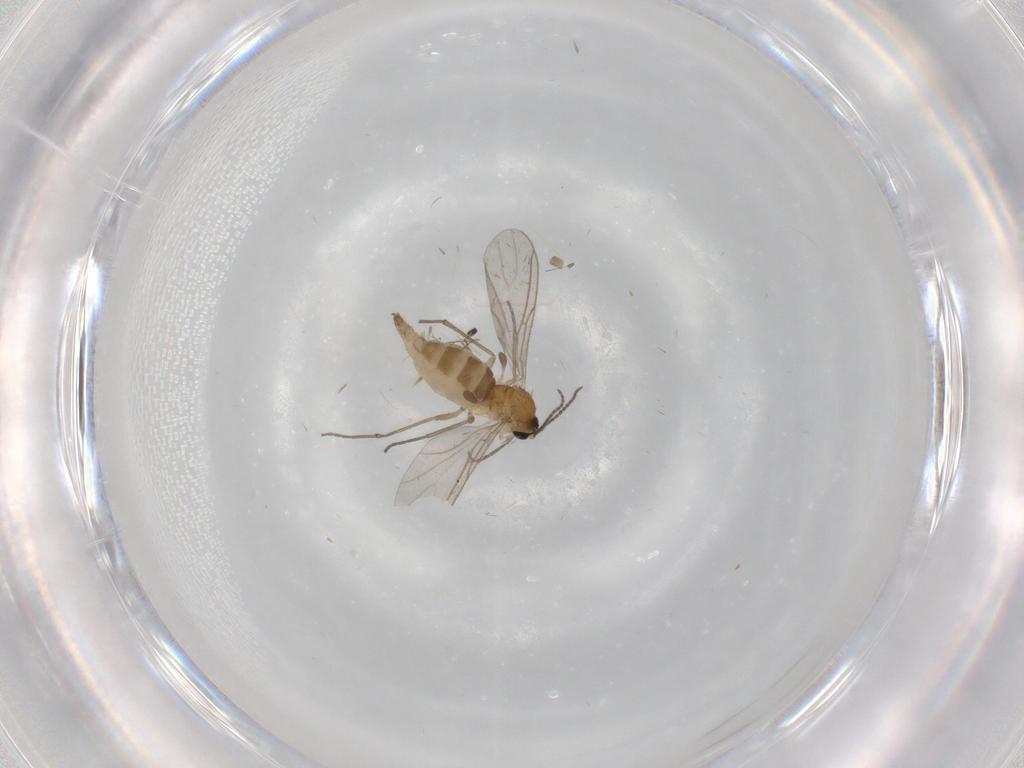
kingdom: Animalia
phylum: Arthropoda
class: Insecta
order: Diptera
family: Sciaridae
